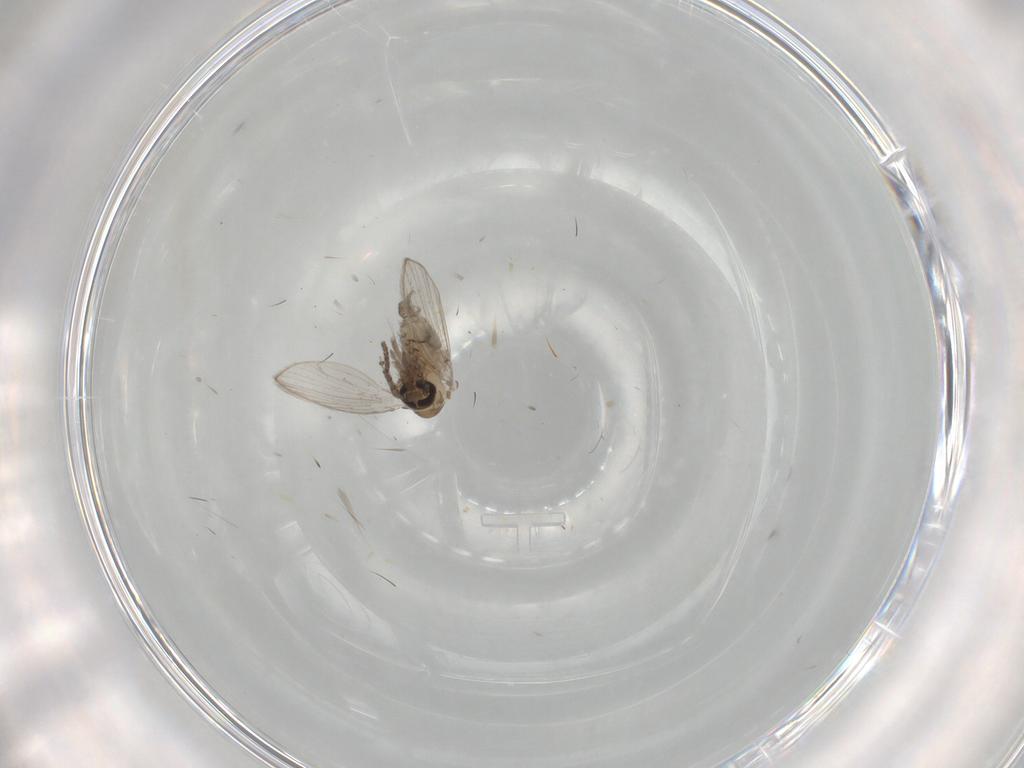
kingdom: Animalia
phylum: Arthropoda
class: Insecta
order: Diptera
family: Psychodidae
